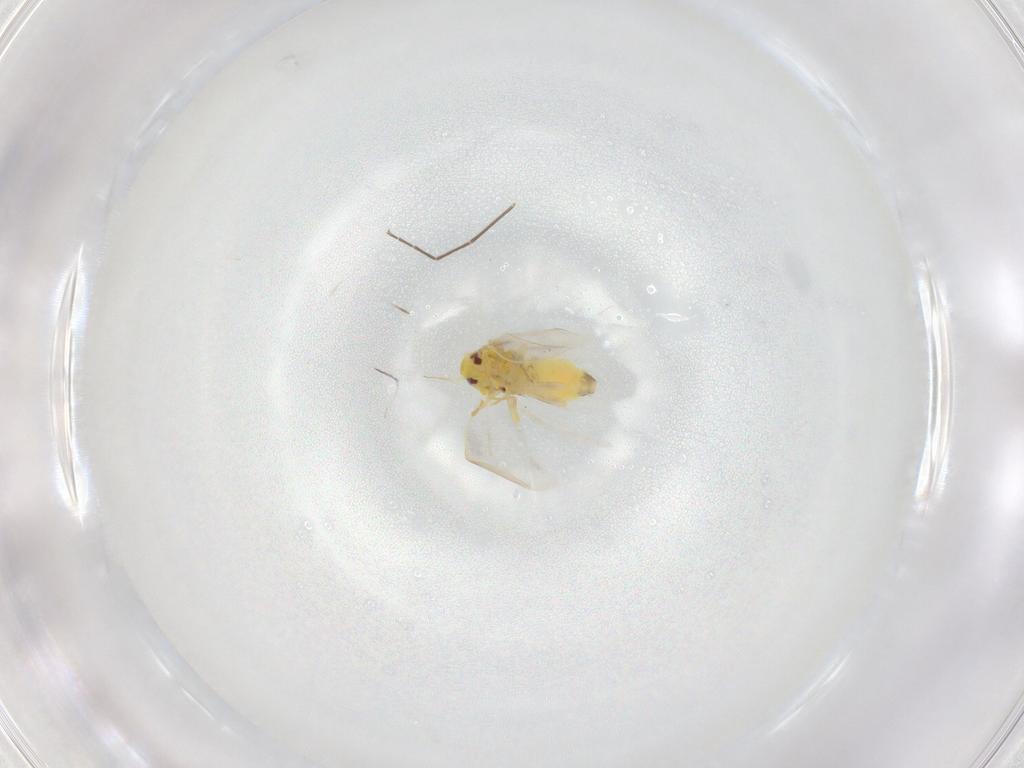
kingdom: Animalia
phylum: Arthropoda
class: Insecta
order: Hemiptera
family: Aleyrodidae
